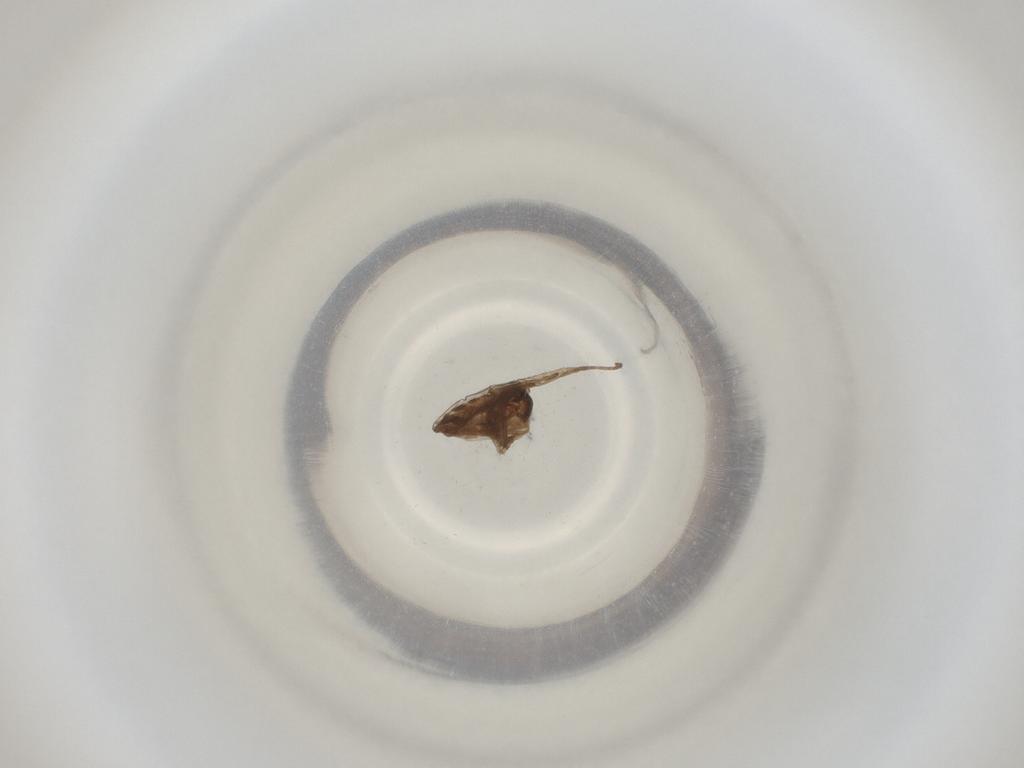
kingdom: Animalia
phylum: Arthropoda
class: Insecta
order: Diptera
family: Cecidomyiidae
